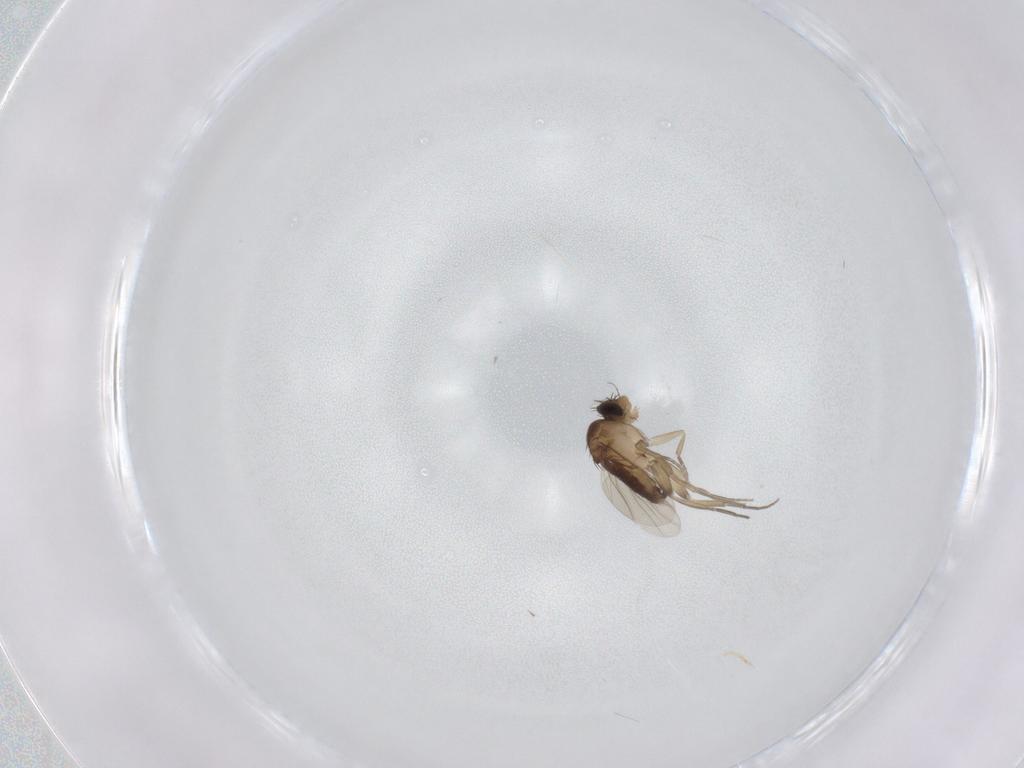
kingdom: Animalia
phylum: Arthropoda
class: Insecta
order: Diptera
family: Phoridae
